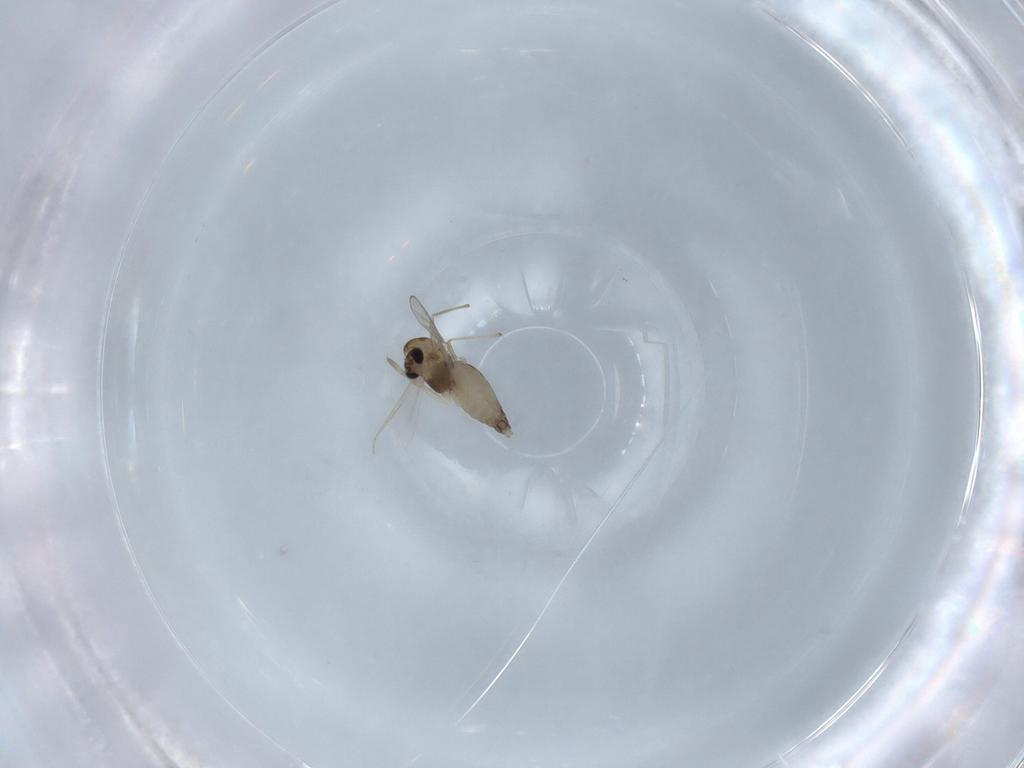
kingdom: Animalia
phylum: Arthropoda
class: Insecta
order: Diptera
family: Chironomidae
